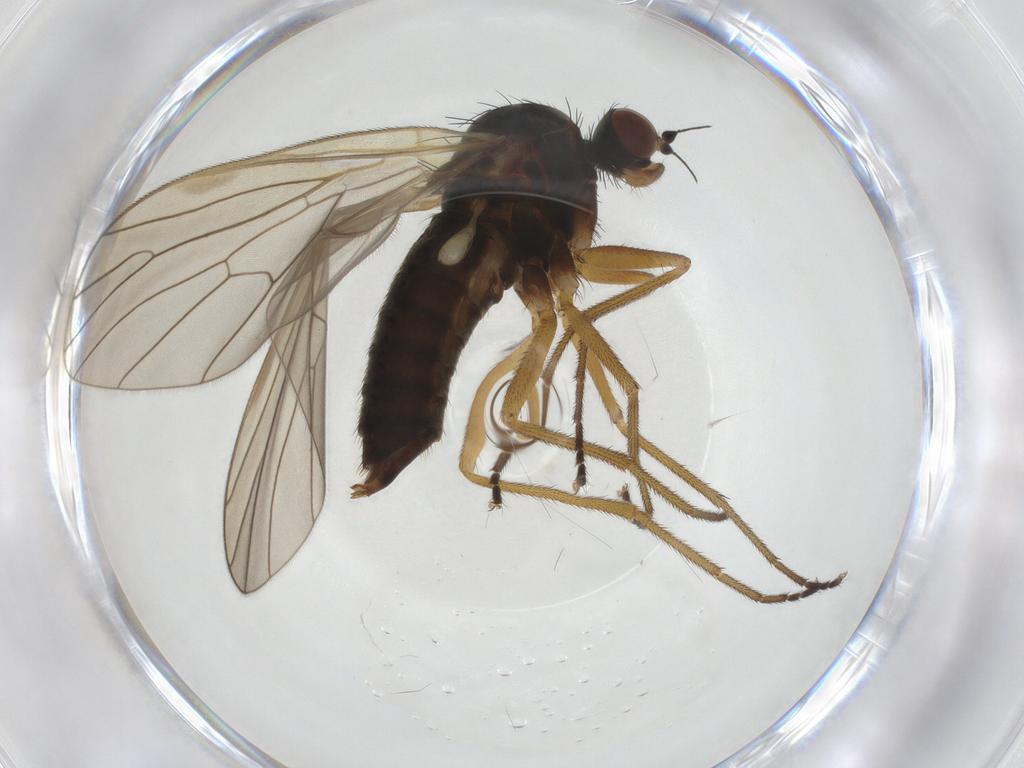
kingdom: Animalia
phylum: Arthropoda
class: Insecta
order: Diptera
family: Brachystomatidae
